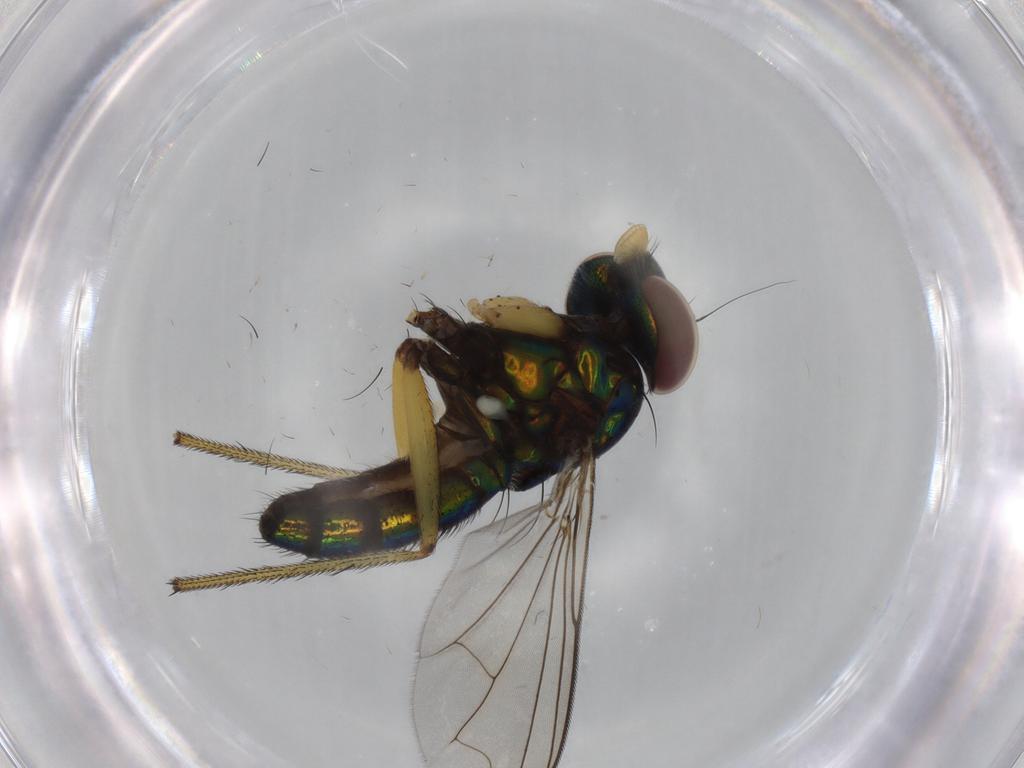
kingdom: Animalia
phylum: Arthropoda
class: Insecta
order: Diptera
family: Dolichopodidae
